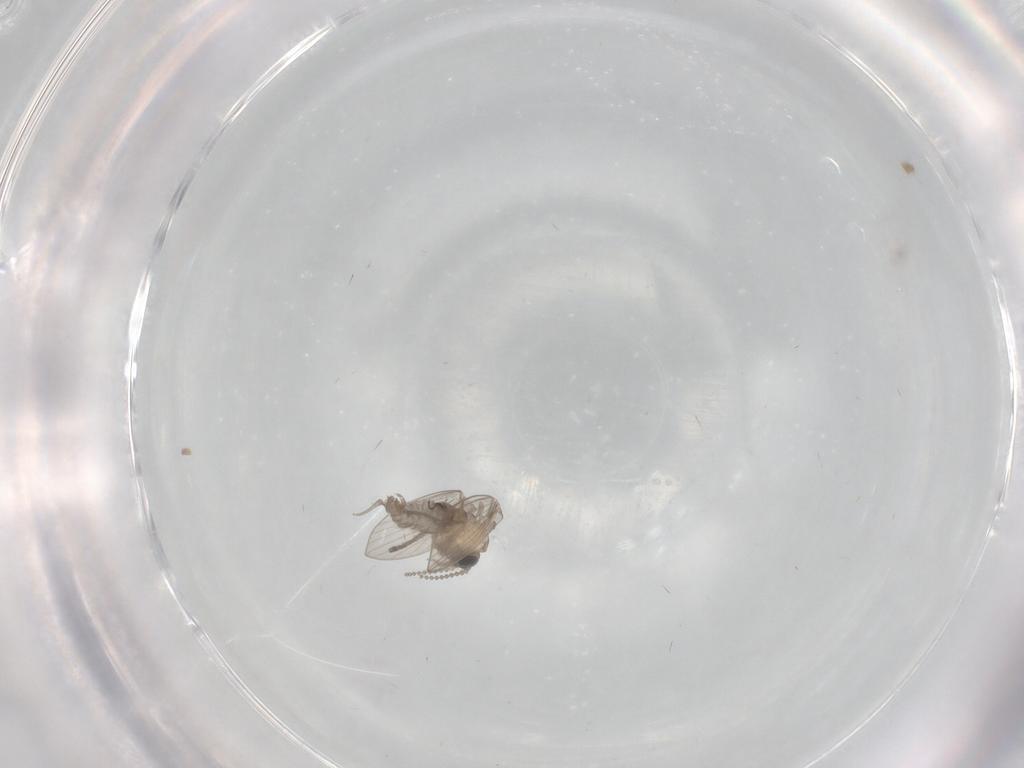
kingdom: Animalia
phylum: Arthropoda
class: Insecta
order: Diptera
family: Psychodidae
